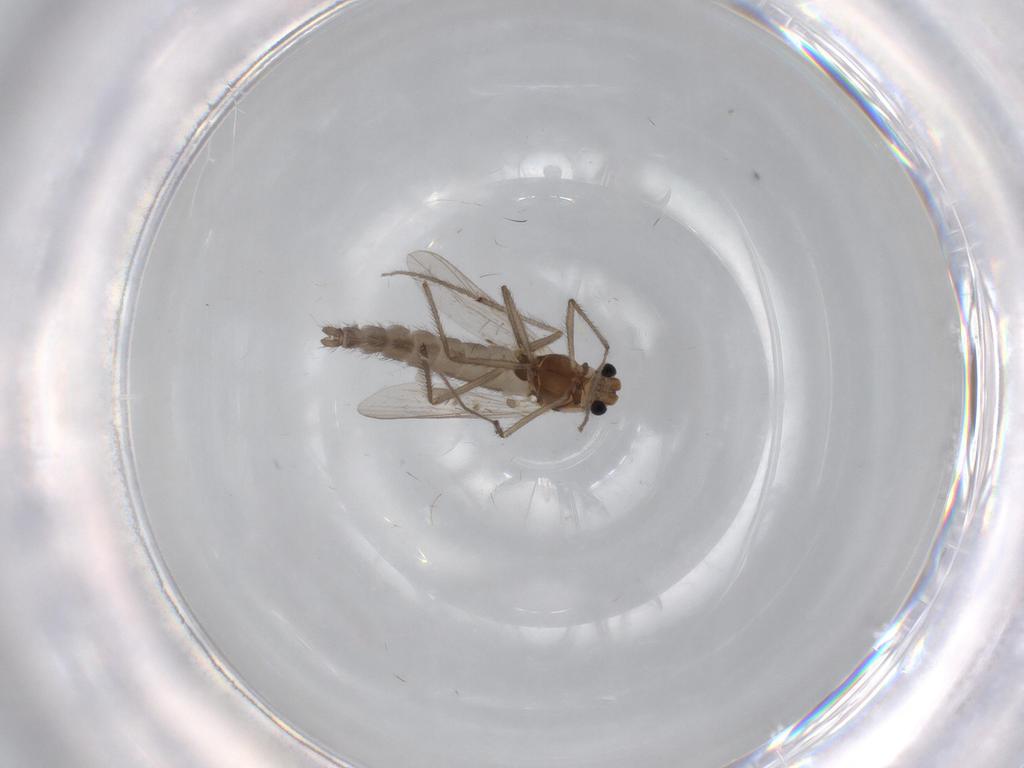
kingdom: Animalia
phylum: Arthropoda
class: Insecta
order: Diptera
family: Chironomidae
